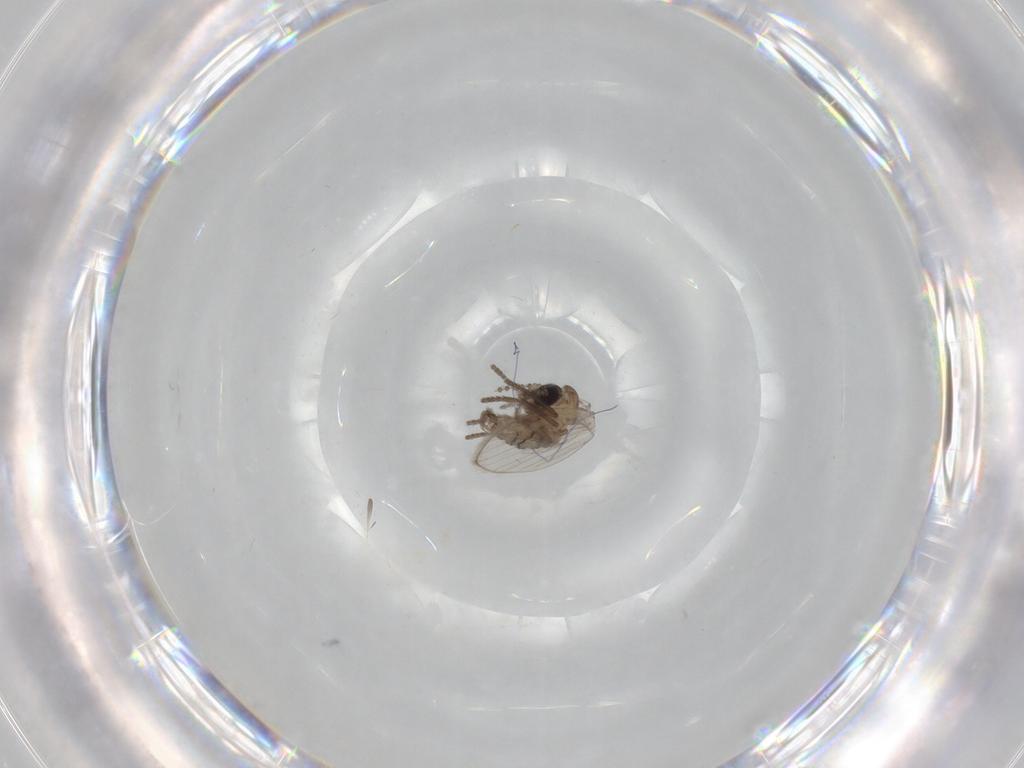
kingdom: Animalia
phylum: Arthropoda
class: Insecta
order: Diptera
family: Psychodidae
